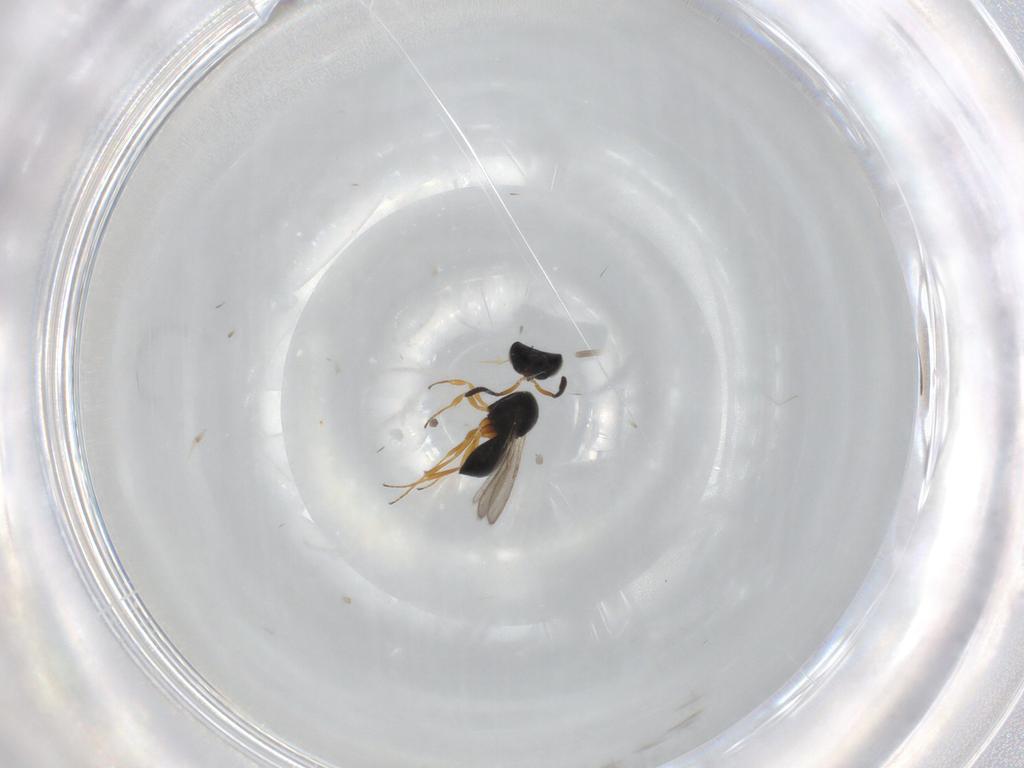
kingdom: Animalia
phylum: Arthropoda
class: Insecta
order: Hymenoptera
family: Scelionidae
